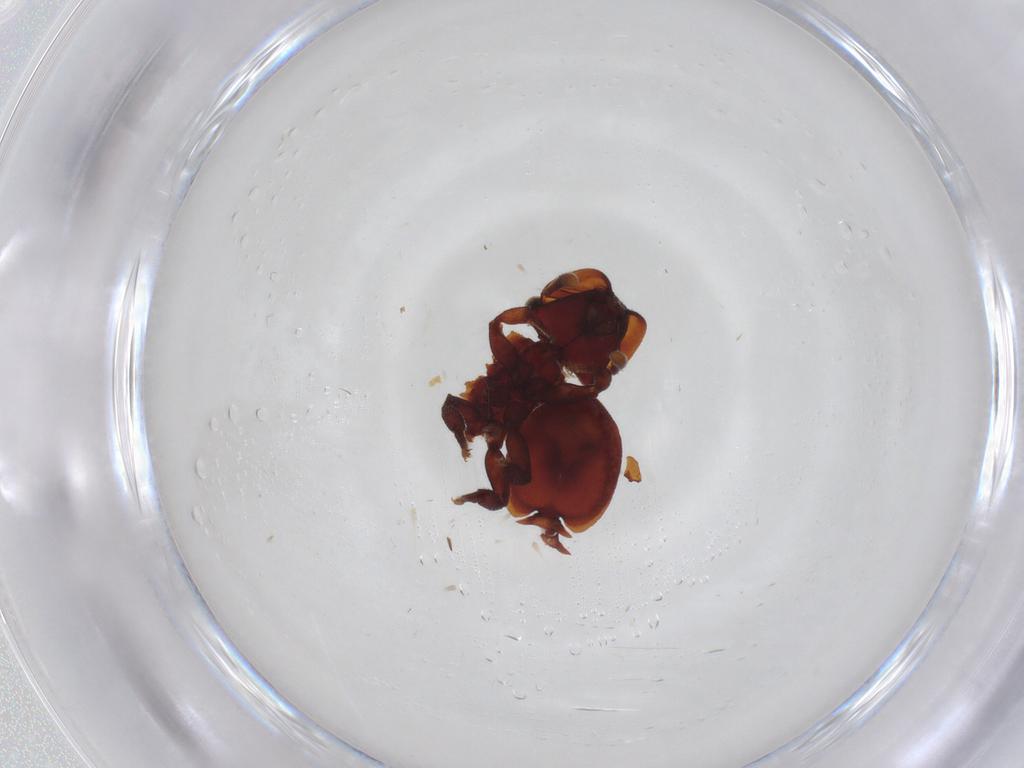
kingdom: Animalia
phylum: Arthropoda
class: Insecta
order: Hymenoptera
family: Formicidae
